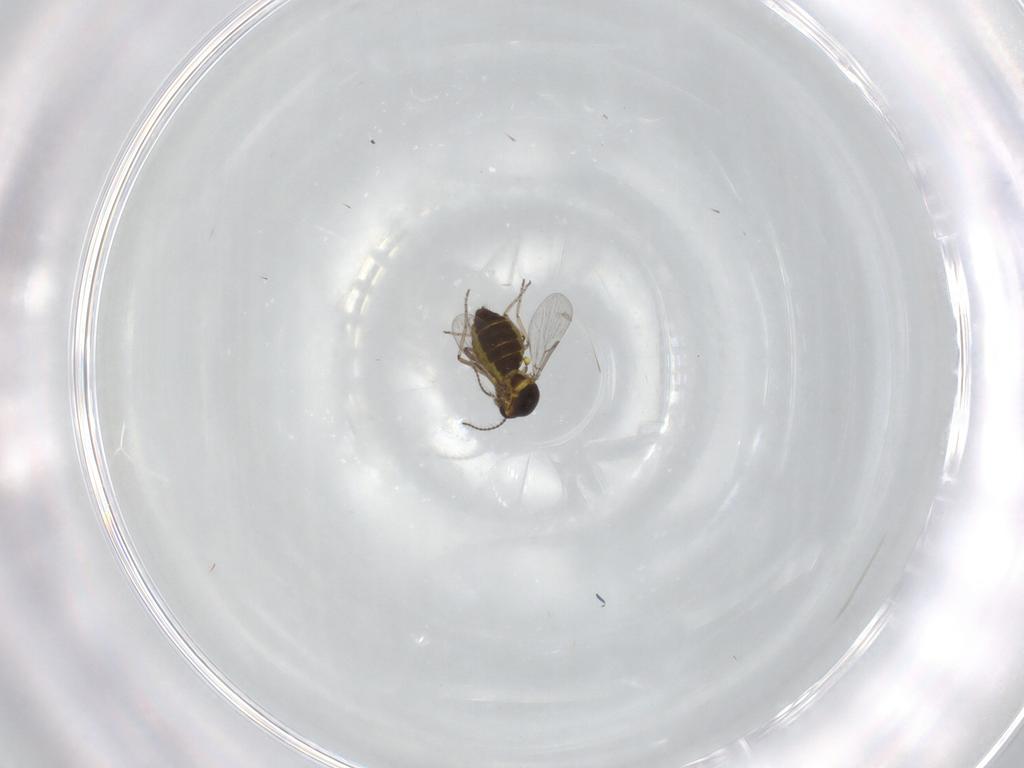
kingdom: Animalia
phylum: Arthropoda
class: Insecta
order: Diptera
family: Ceratopogonidae
